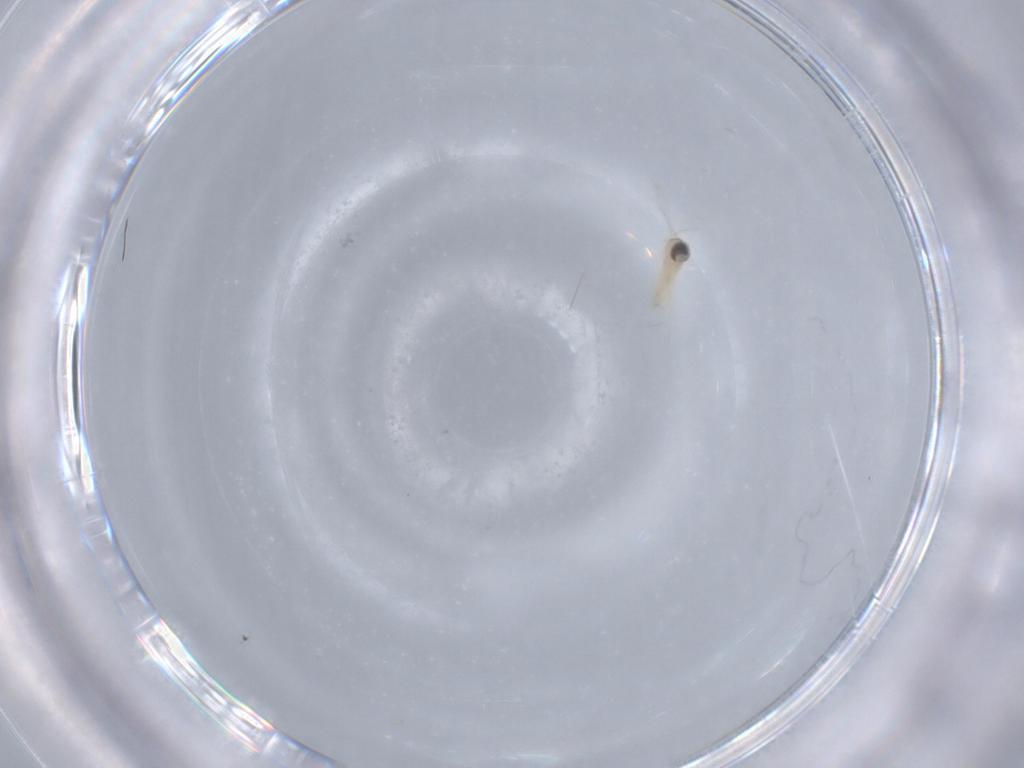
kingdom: Animalia
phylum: Arthropoda
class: Insecta
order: Diptera
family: Cecidomyiidae
